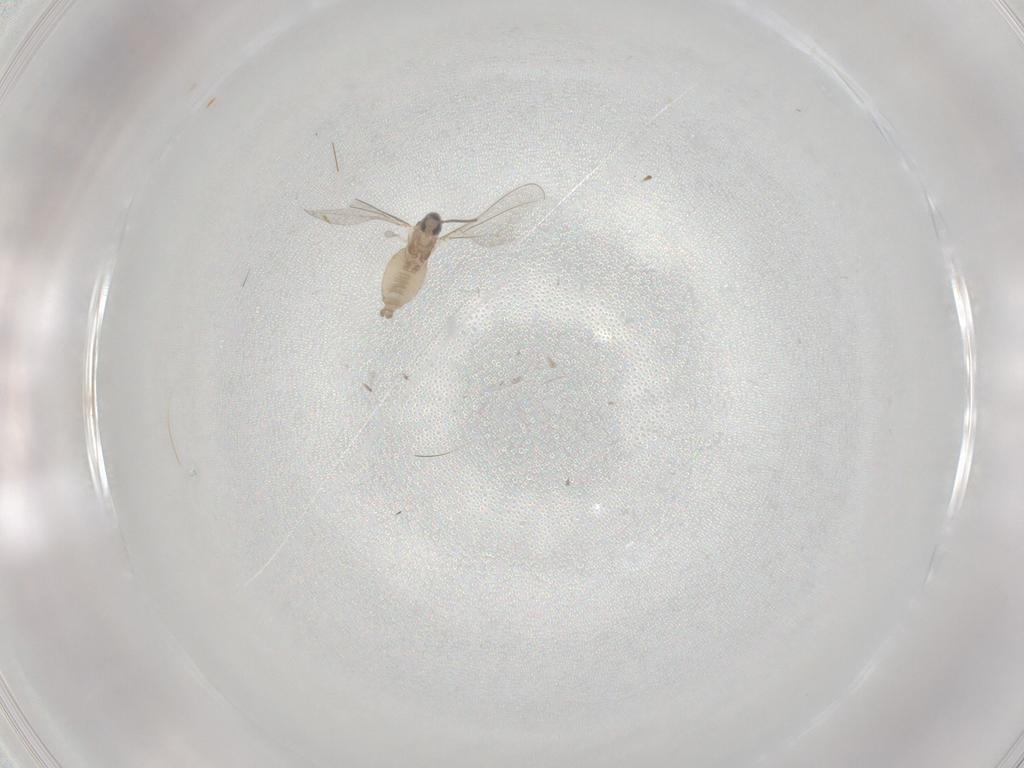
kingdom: Animalia
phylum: Arthropoda
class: Insecta
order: Diptera
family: Cecidomyiidae
